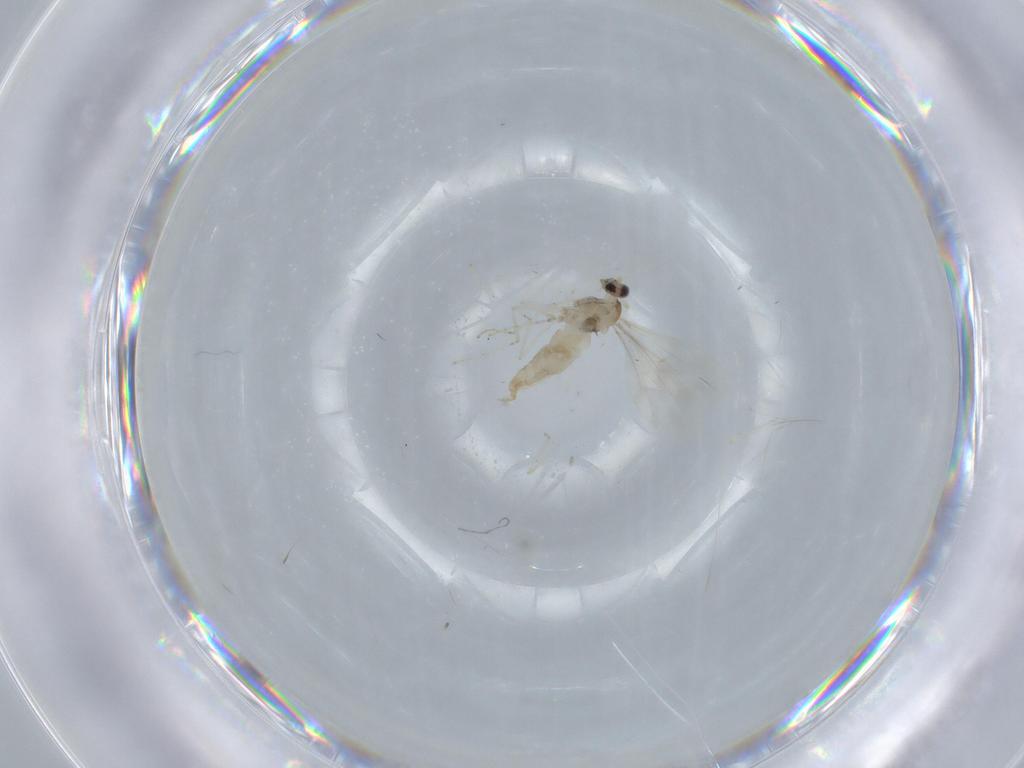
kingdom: Animalia
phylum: Arthropoda
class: Insecta
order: Diptera
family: Cecidomyiidae
